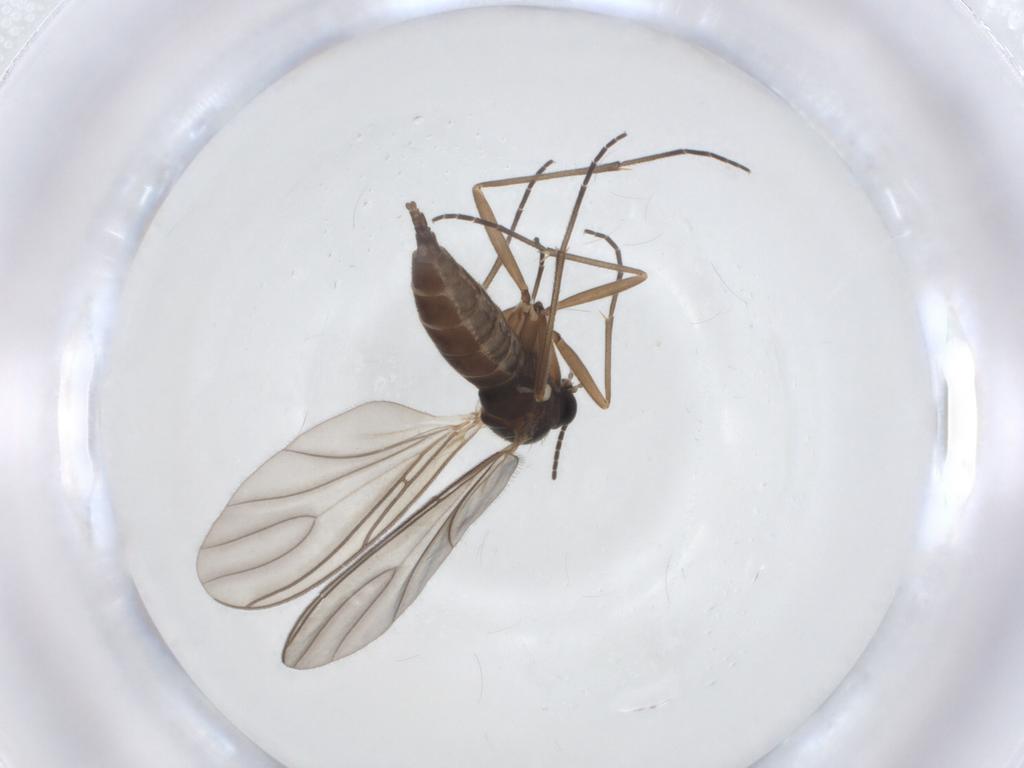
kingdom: Animalia
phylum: Arthropoda
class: Insecta
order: Diptera
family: Sciaridae
